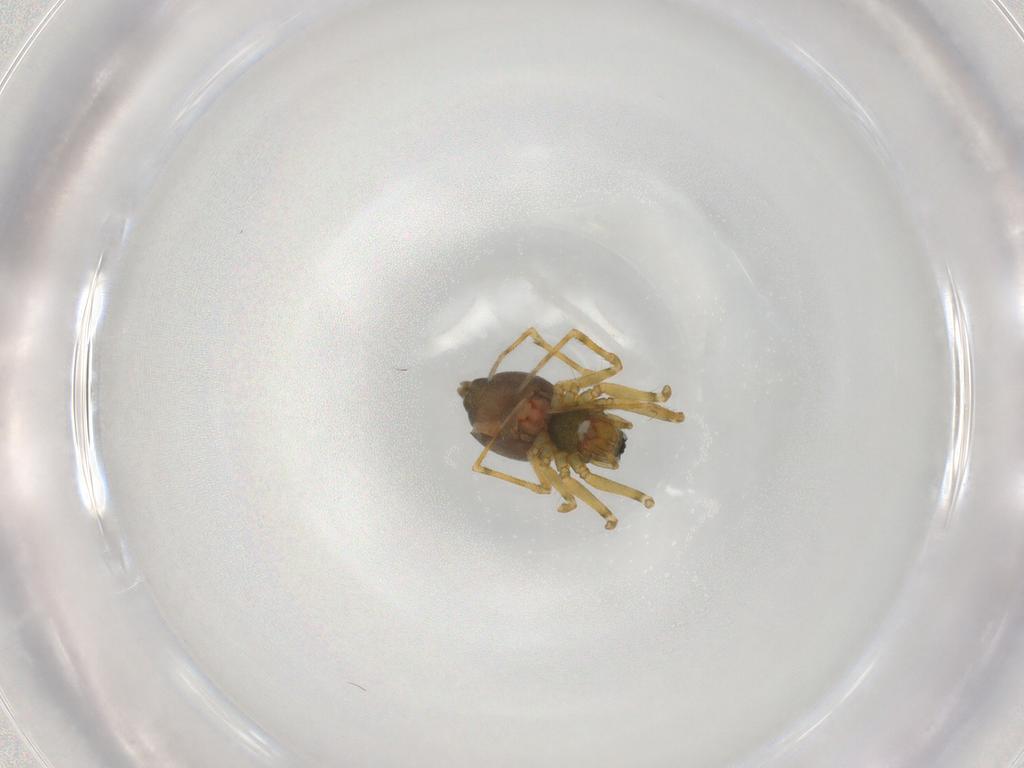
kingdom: Animalia
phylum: Arthropoda
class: Arachnida
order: Araneae
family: Linyphiidae
